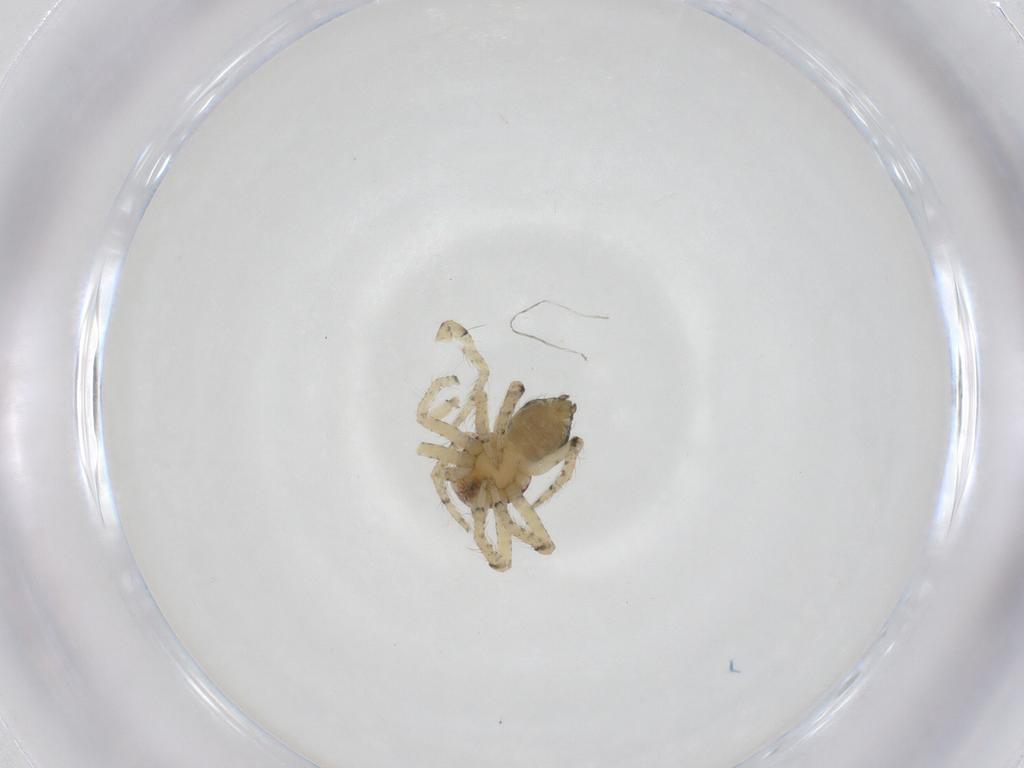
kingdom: Animalia
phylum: Arthropoda
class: Arachnida
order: Araneae
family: Thomisidae
